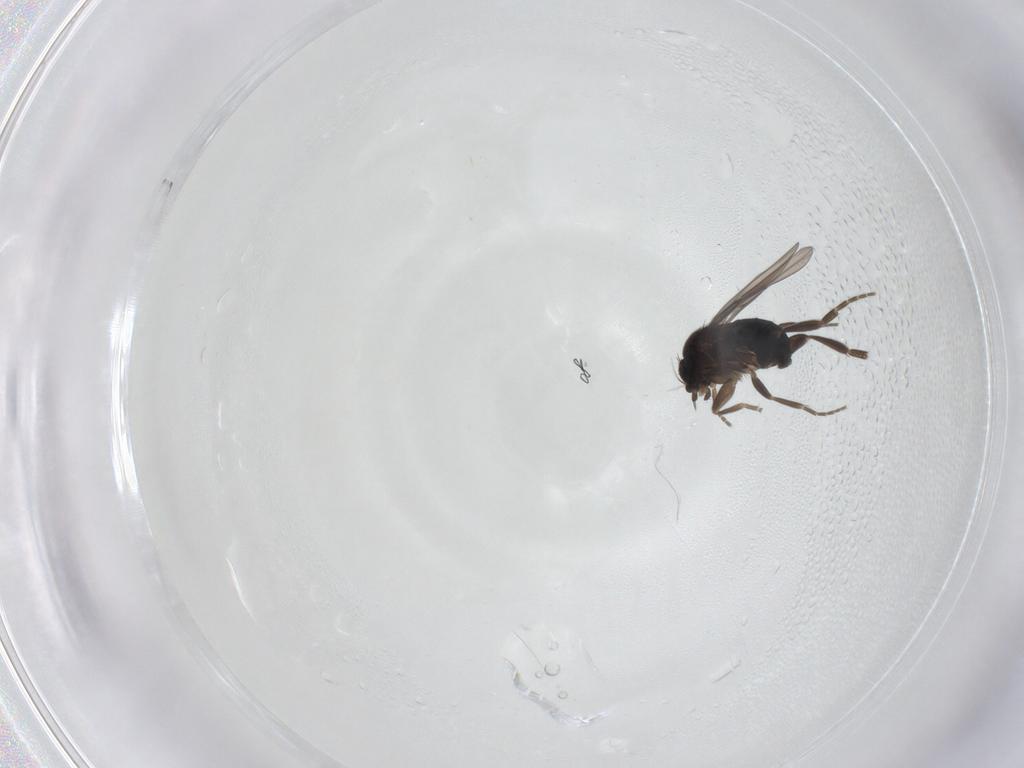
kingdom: Animalia
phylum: Arthropoda
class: Insecta
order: Diptera
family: Phoridae
